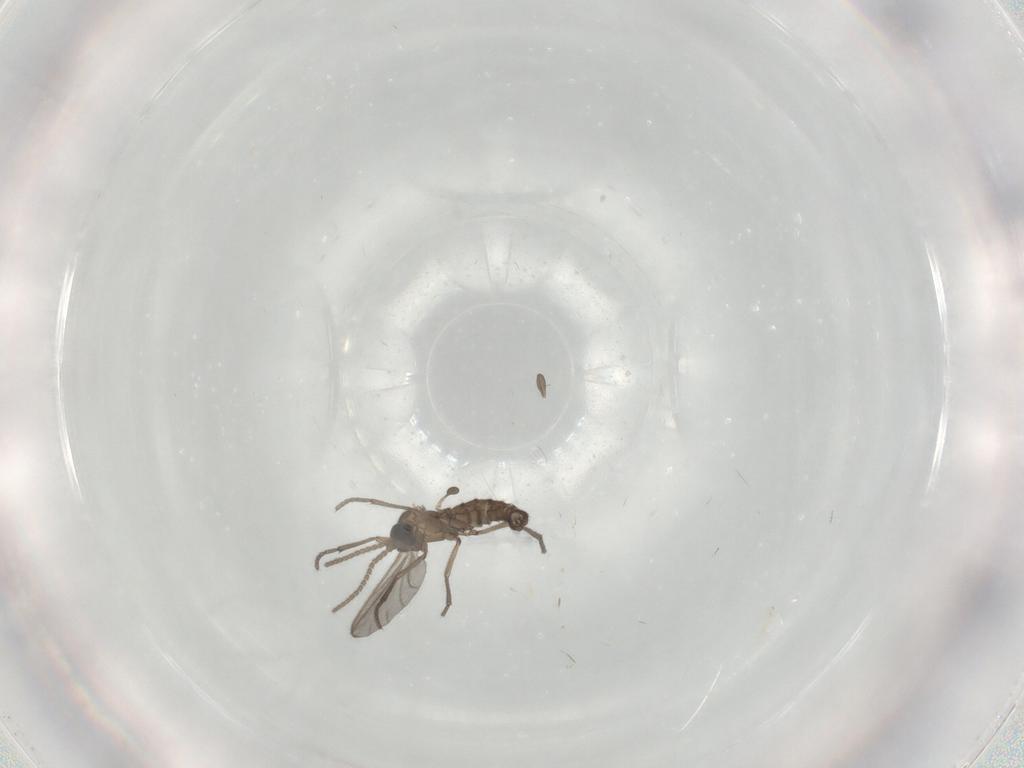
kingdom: Animalia
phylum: Arthropoda
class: Insecta
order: Diptera
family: Sciaridae
